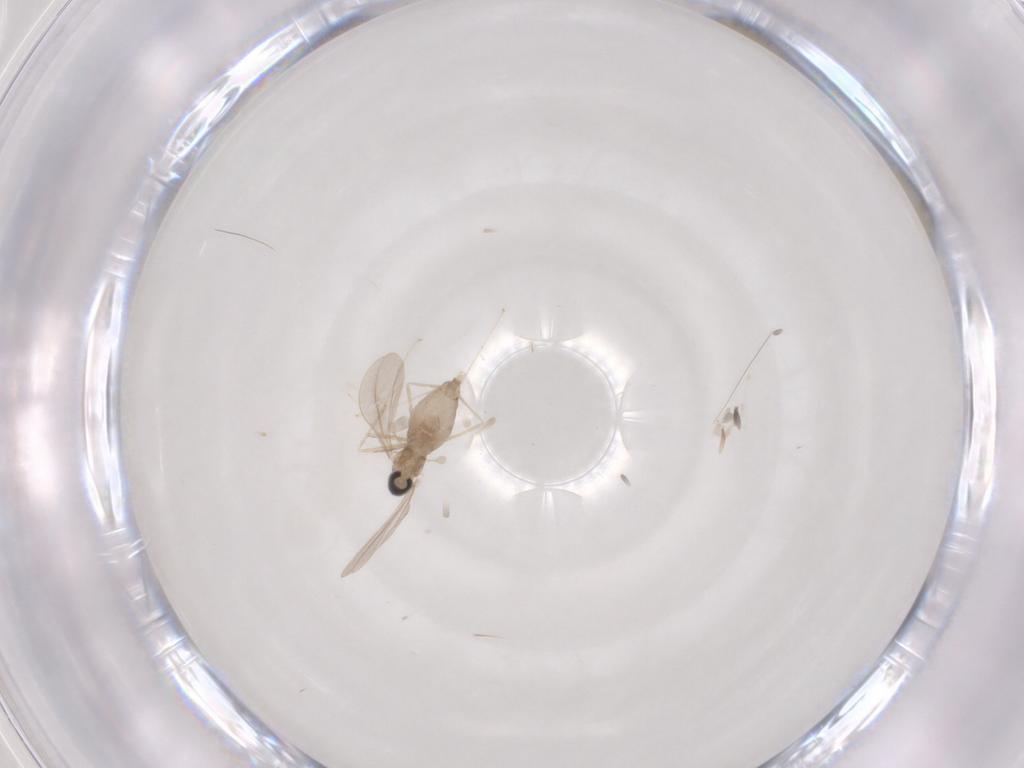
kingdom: Animalia
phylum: Arthropoda
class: Insecta
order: Diptera
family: Cecidomyiidae
